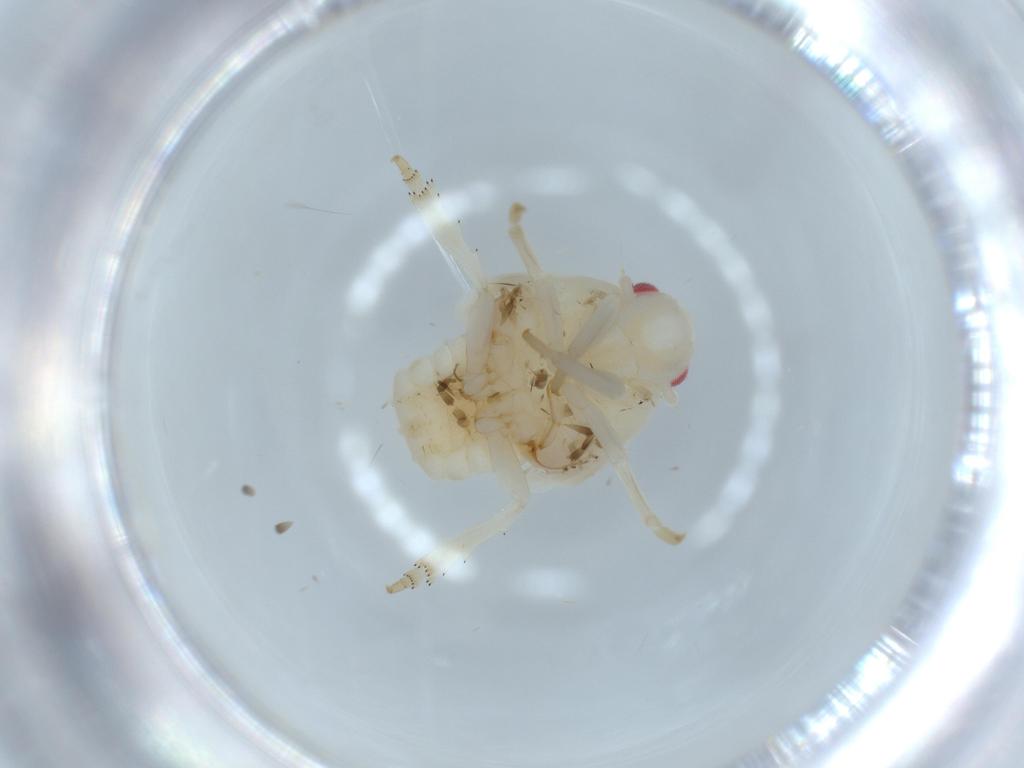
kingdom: Animalia
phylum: Arthropoda
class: Insecta
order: Hemiptera
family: Flatidae
